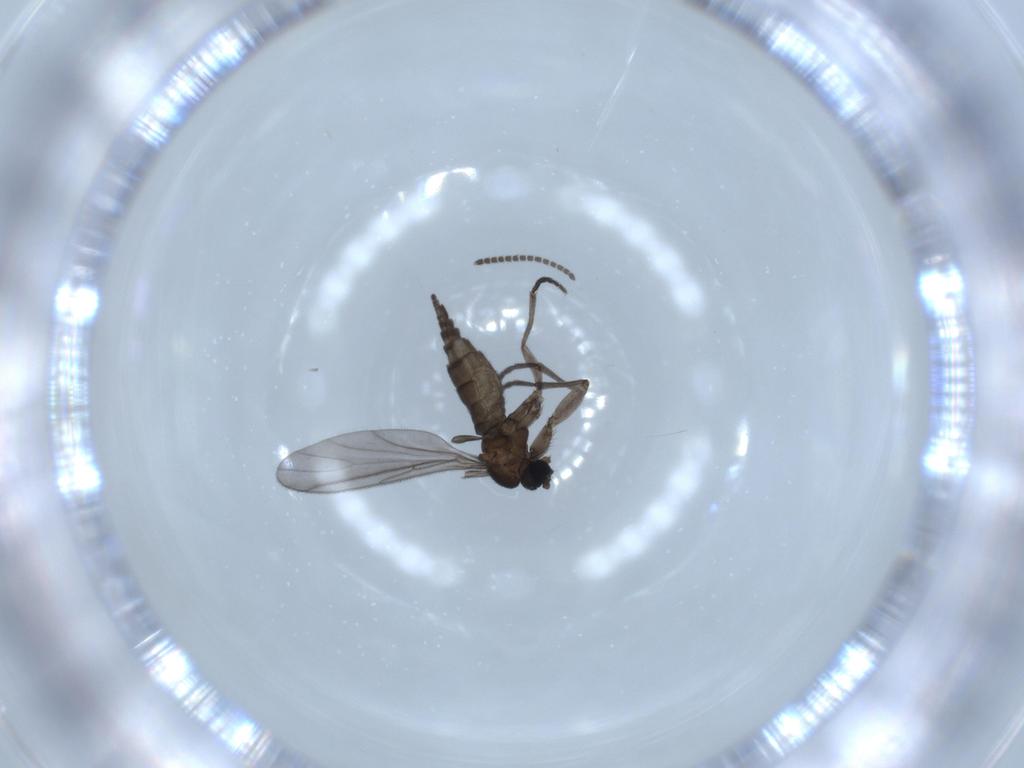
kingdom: Animalia
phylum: Arthropoda
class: Insecta
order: Diptera
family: Sciaridae
